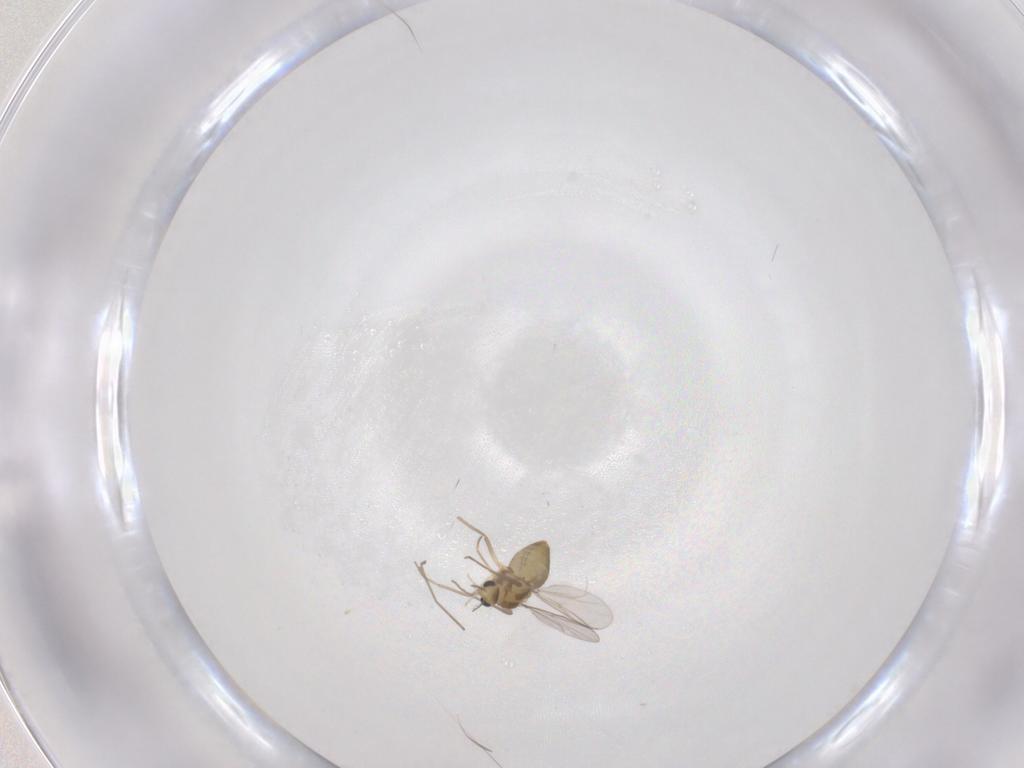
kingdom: Animalia
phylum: Arthropoda
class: Insecta
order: Diptera
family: Chironomidae
